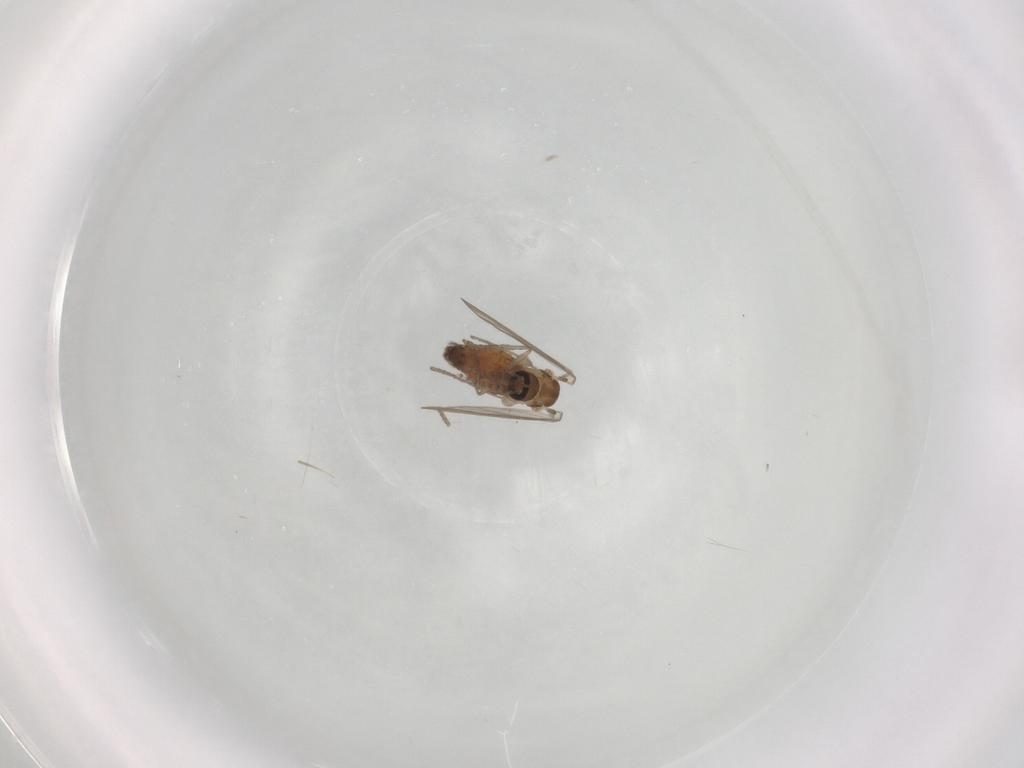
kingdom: Animalia
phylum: Arthropoda
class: Insecta
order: Diptera
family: Psychodidae
